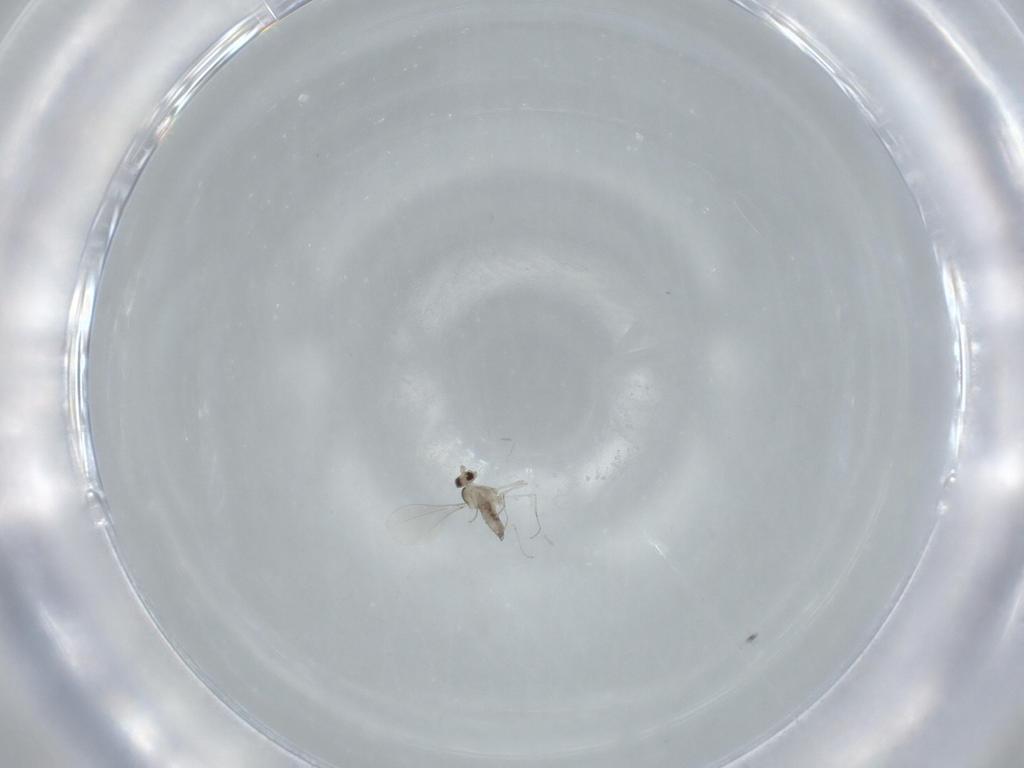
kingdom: Animalia
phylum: Arthropoda
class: Insecta
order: Diptera
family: Cecidomyiidae
